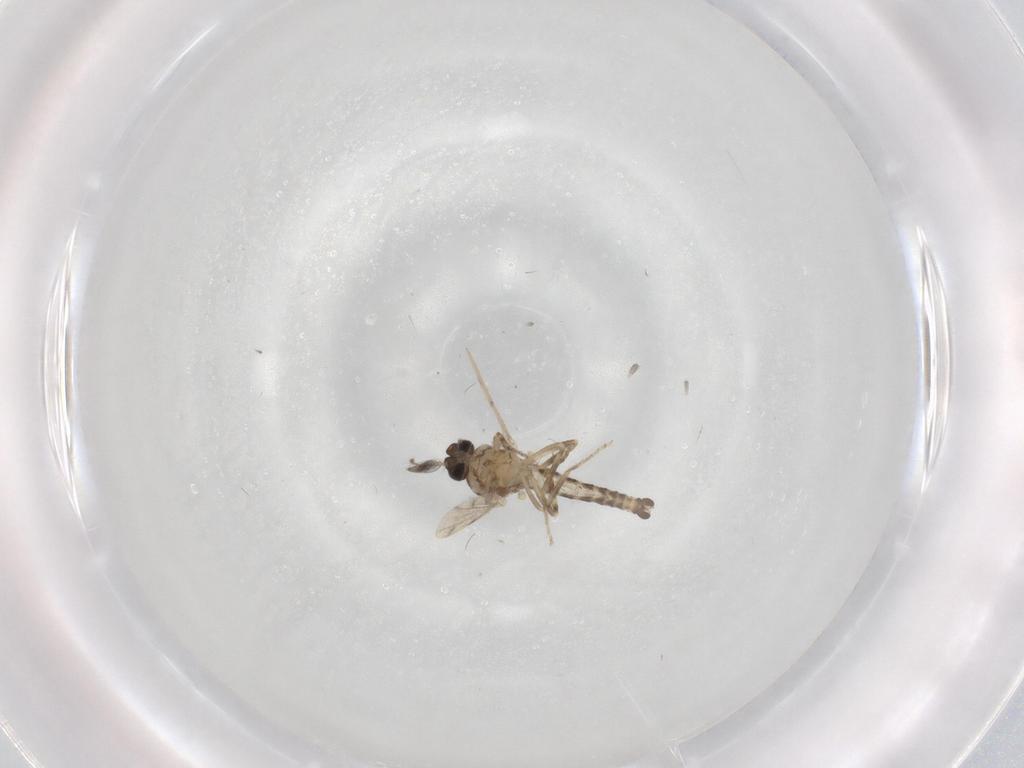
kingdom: Animalia
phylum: Arthropoda
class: Insecta
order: Diptera
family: Ceratopogonidae
